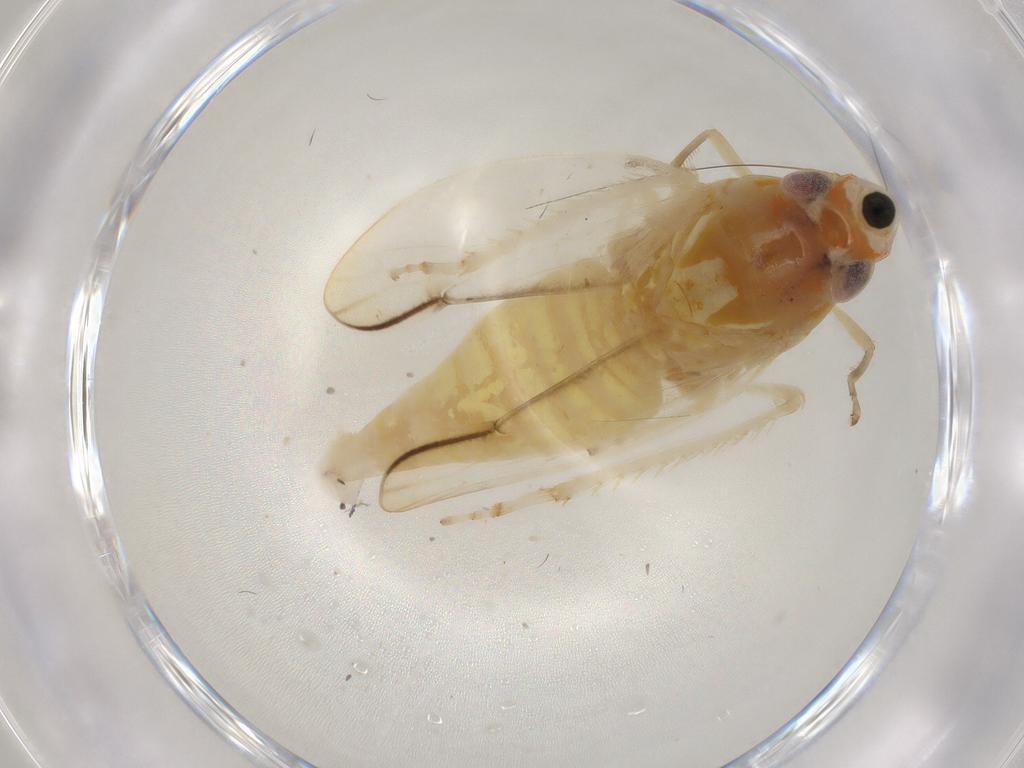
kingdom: Animalia
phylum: Arthropoda
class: Insecta
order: Hemiptera
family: Cicadellidae
